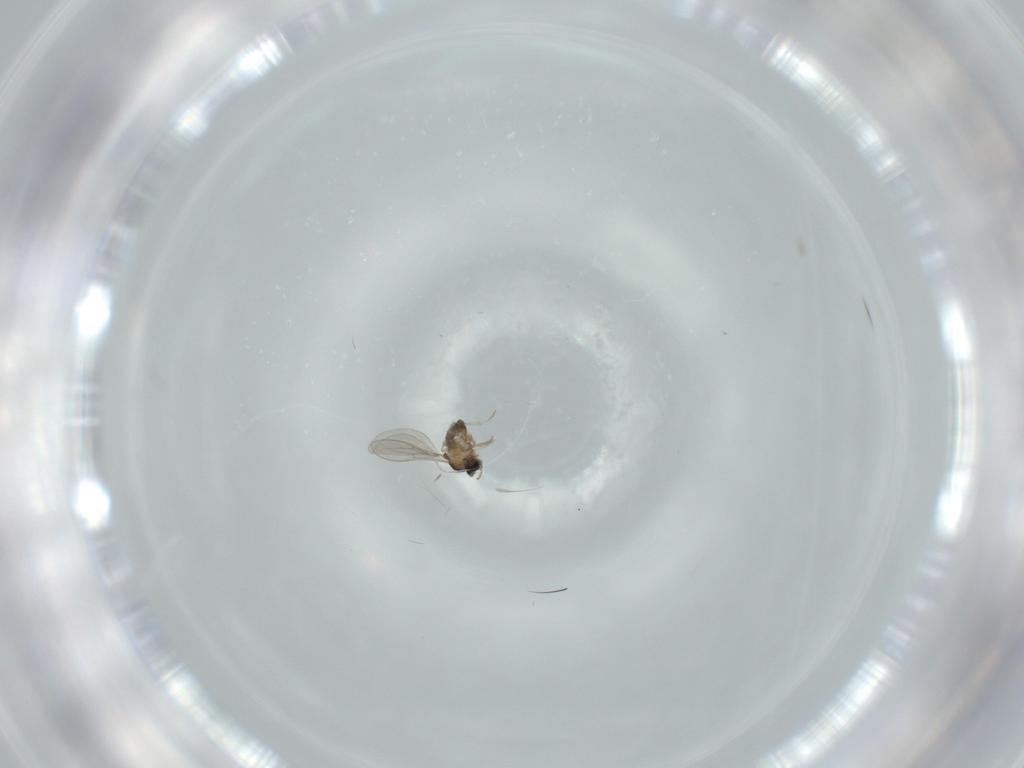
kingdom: Animalia
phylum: Arthropoda
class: Insecta
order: Diptera
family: Cecidomyiidae
